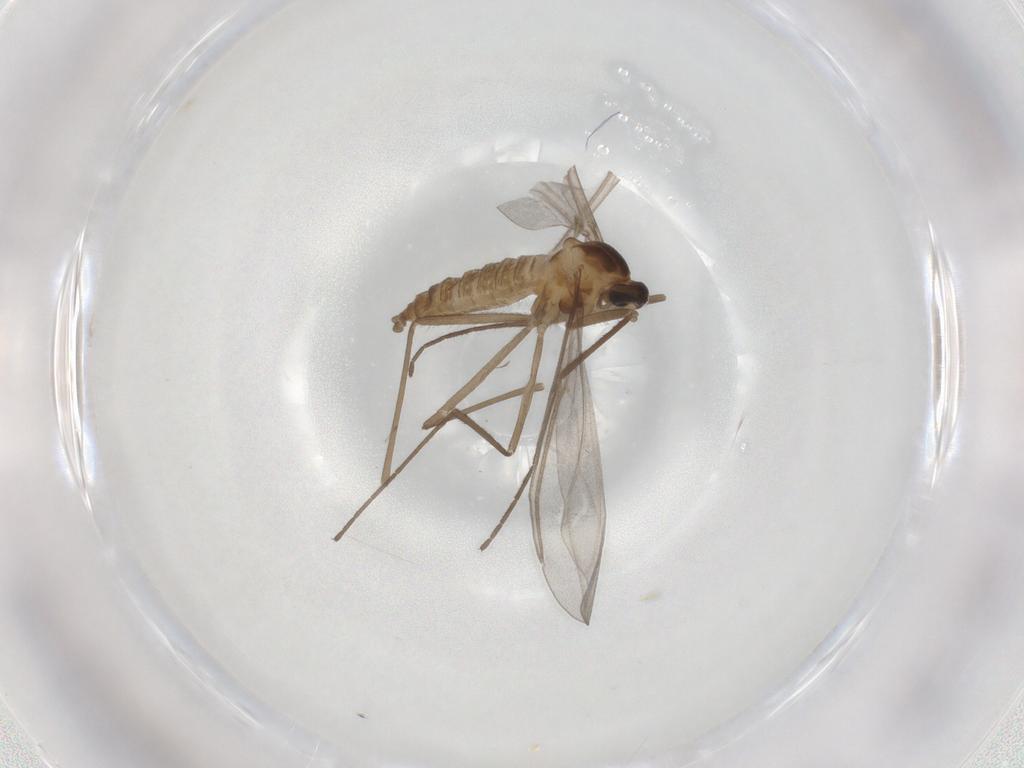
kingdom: Animalia
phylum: Arthropoda
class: Insecta
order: Diptera
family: Cecidomyiidae
